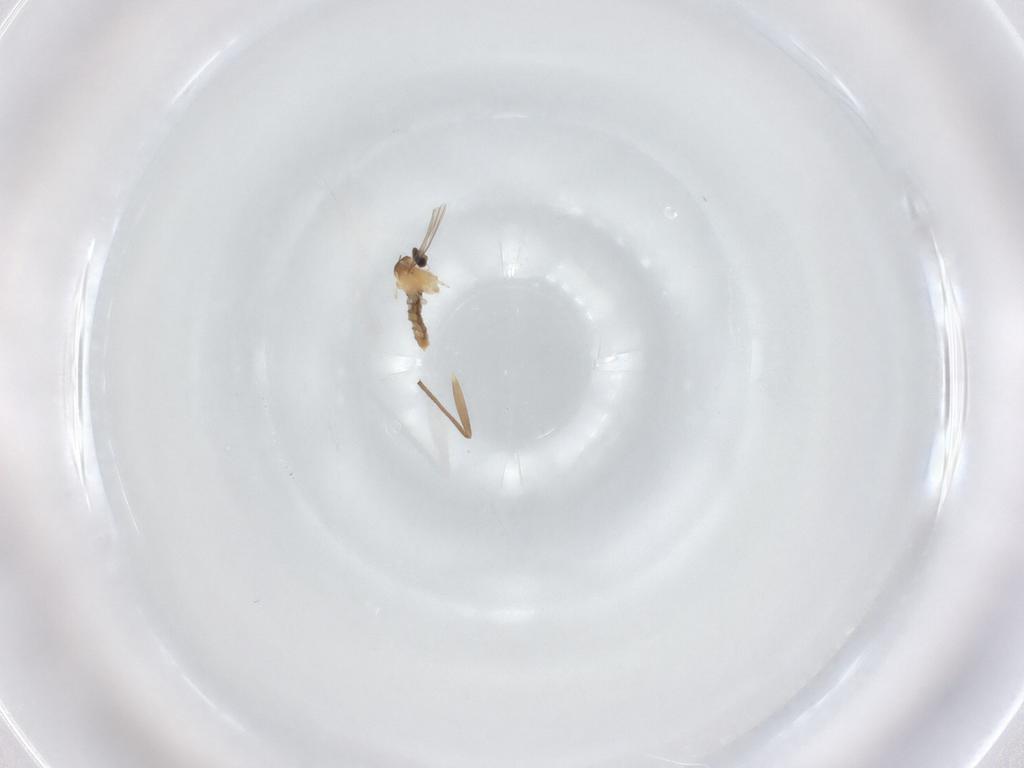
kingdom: Animalia
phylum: Arthropoda
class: Insecta
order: Diptera
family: Cecidomyiidae
